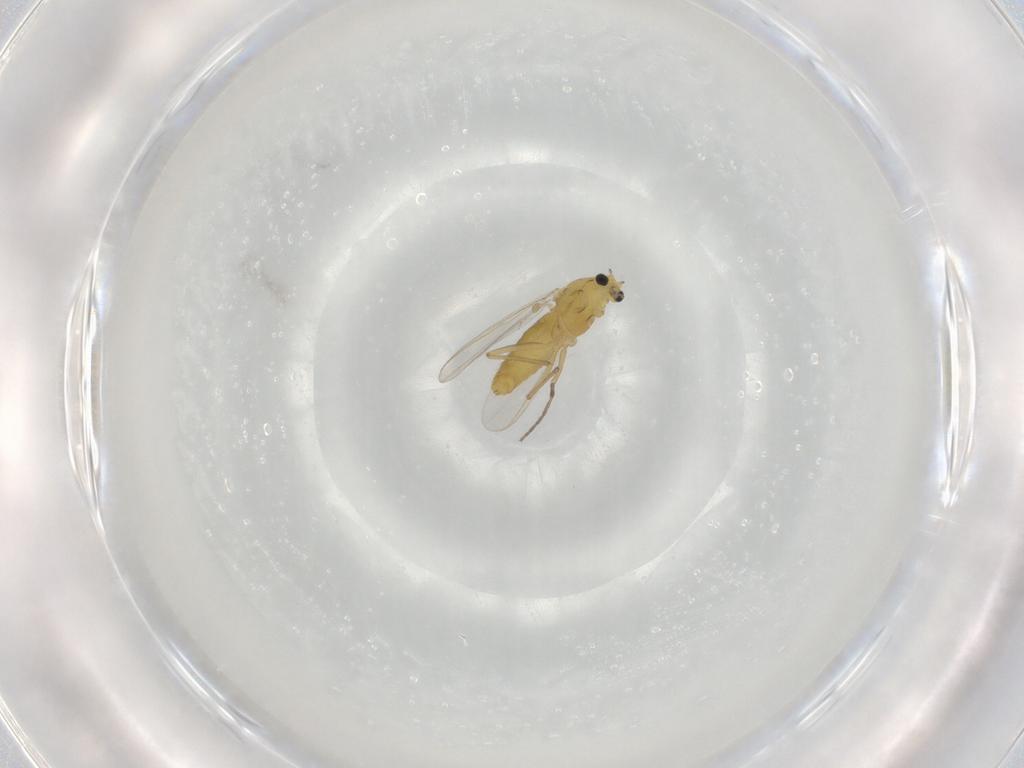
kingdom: Animalia
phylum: Arthropoda
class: Insecta
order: Diptera
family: Chironomidae
